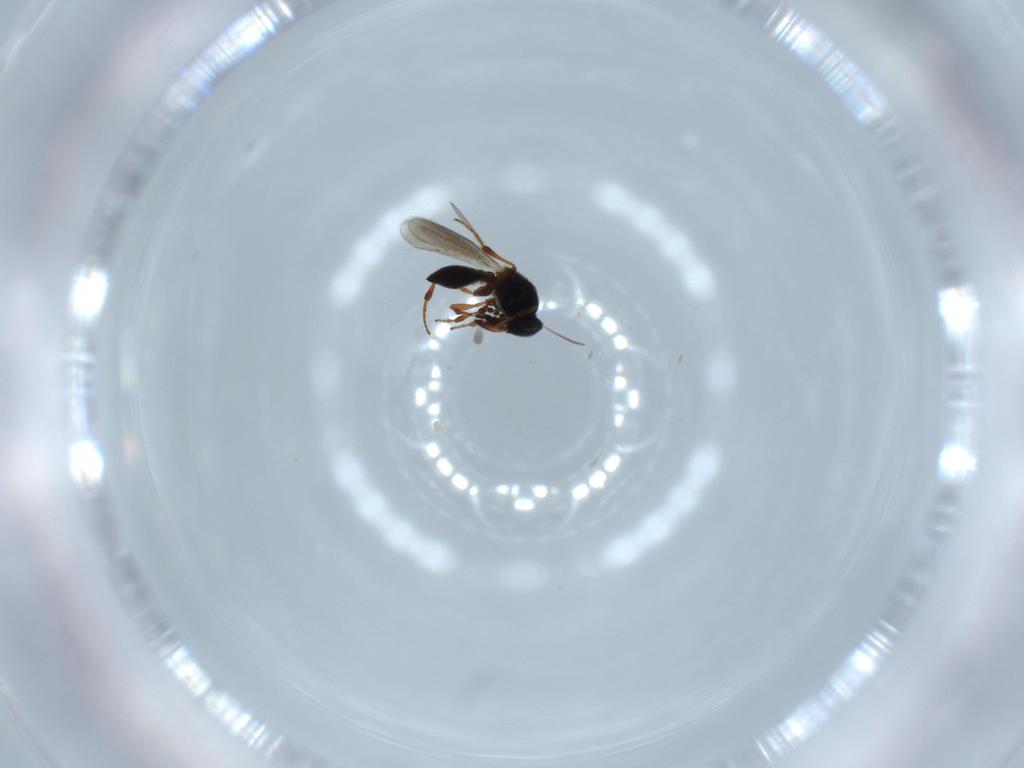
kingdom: Animalia
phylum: Arthropoda
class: Insecta
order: Hymenoptera
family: Platygastridae
